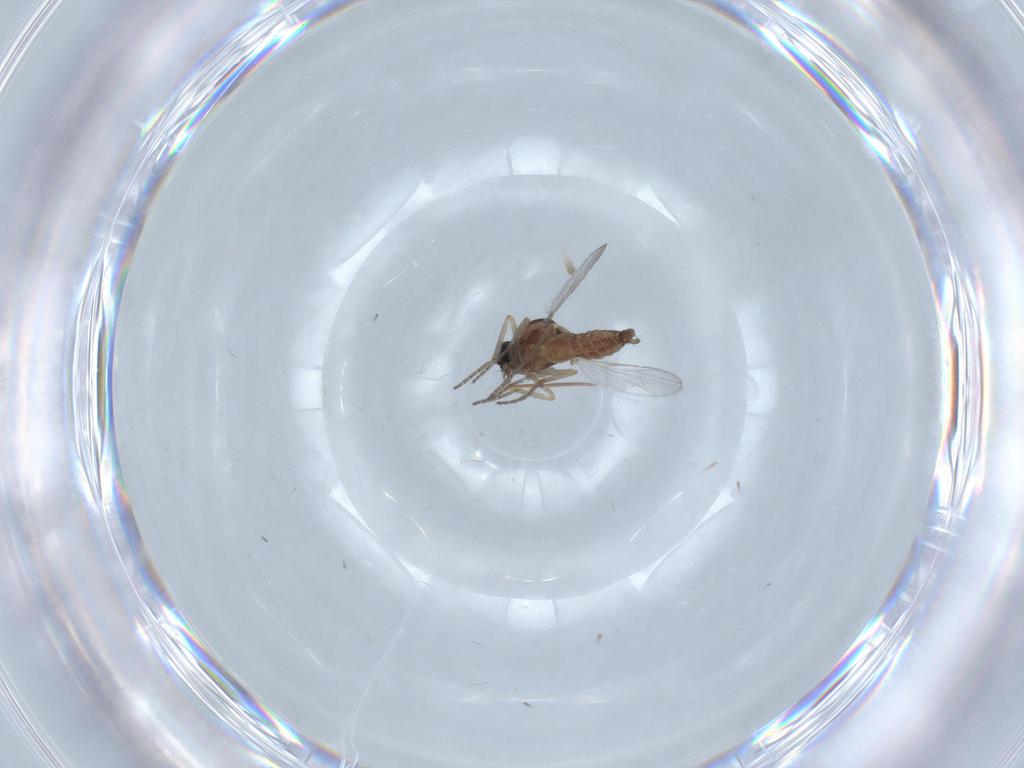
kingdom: Animalia
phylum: Arthropoda
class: Insecta
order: Diptera
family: Ceratopogonidae
